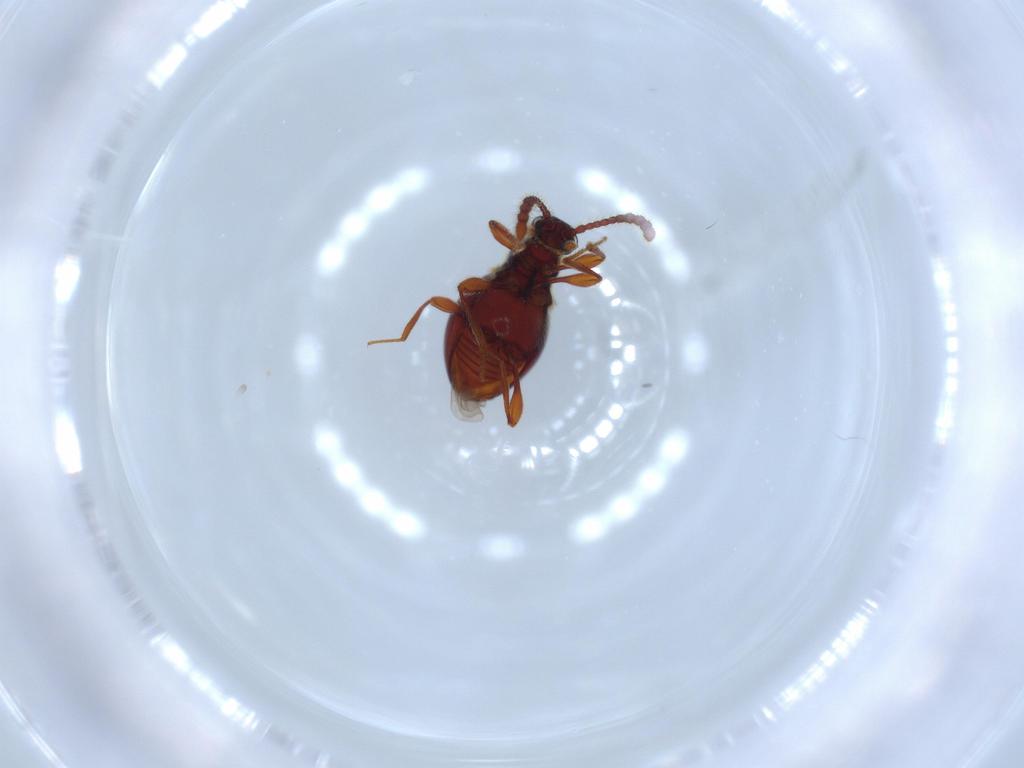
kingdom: Animalia
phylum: Arthropoda
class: Insecta
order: Coleoptera
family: Staphylinidae
